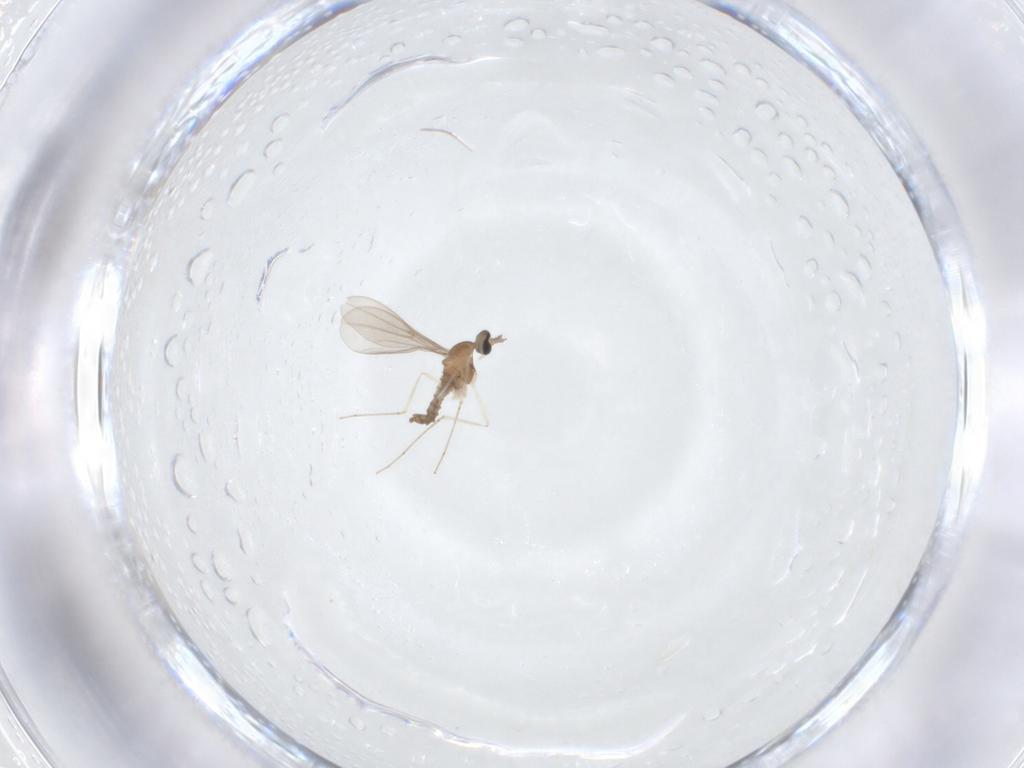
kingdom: Animalia
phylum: Arthropoda
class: Insecta
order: Diptera
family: Cecidomyiidae
